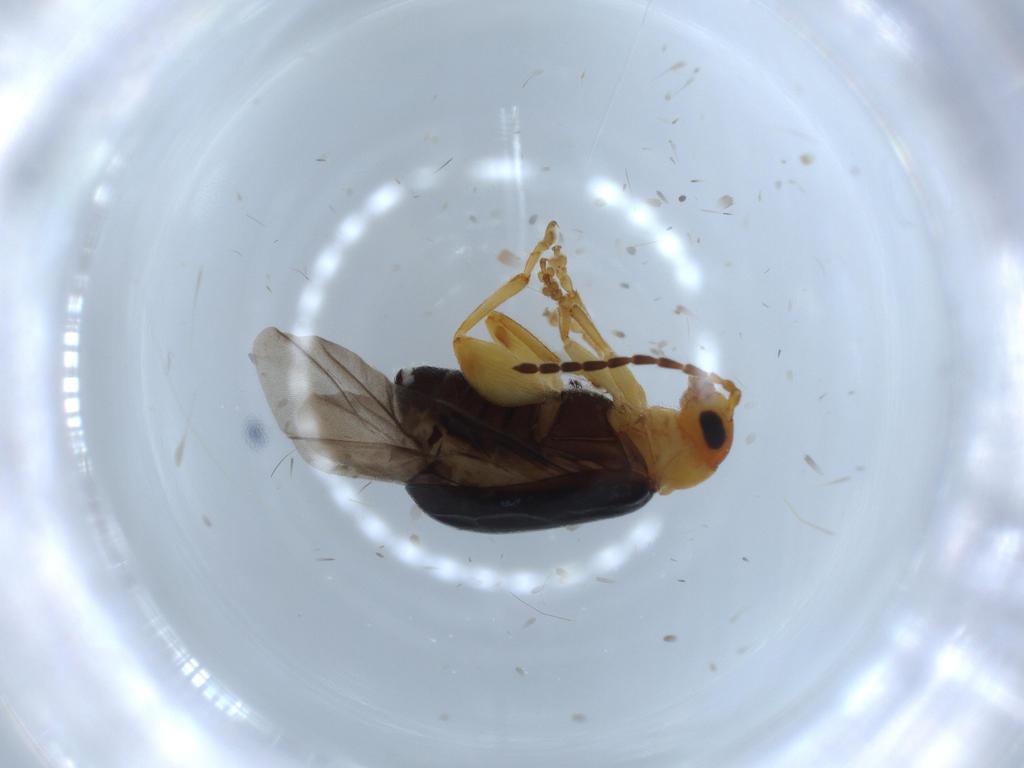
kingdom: Animalia
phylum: Arthropoda
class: Insecta
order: Coleoptera
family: Chrysomelidae
